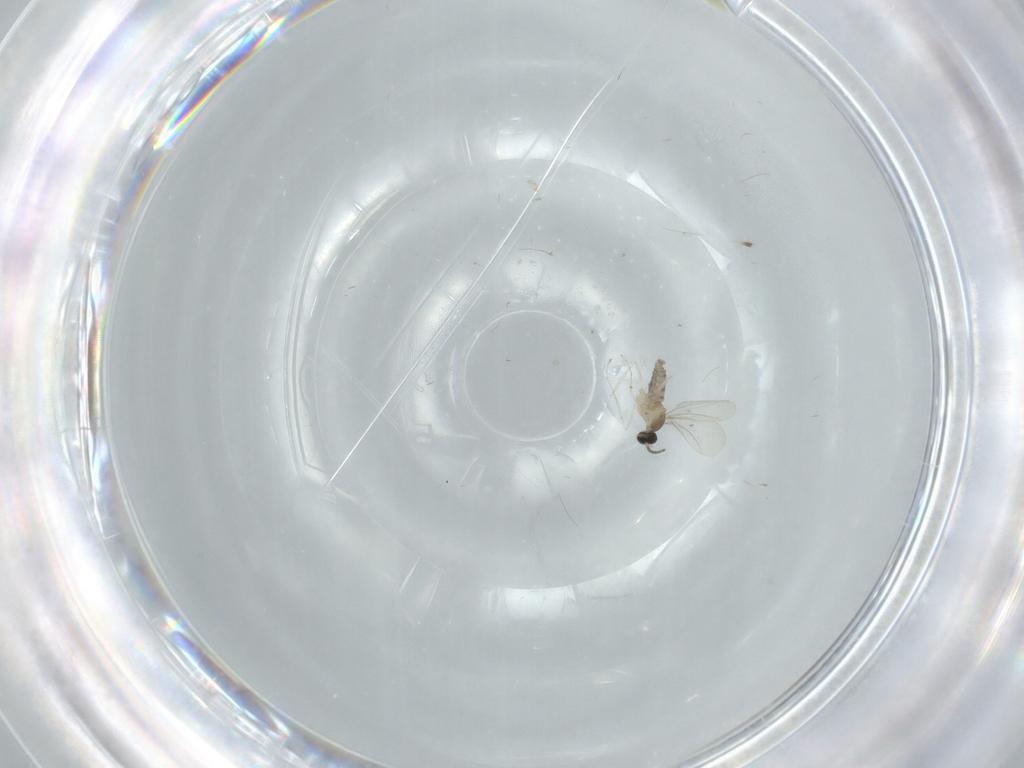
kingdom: Animalia
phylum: Arthropoda
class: Insecta
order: Diptera
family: Cecidomyiidae
